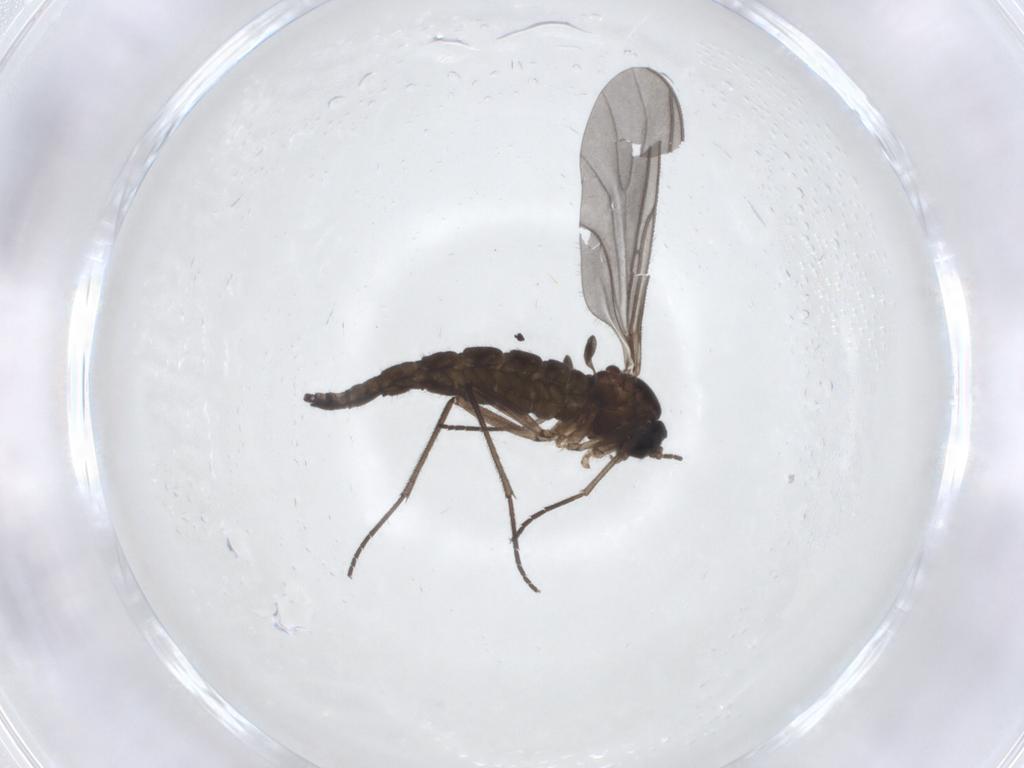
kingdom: Animalia
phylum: Arthropoda
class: Insecta
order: Diptera
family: Sciaridae
